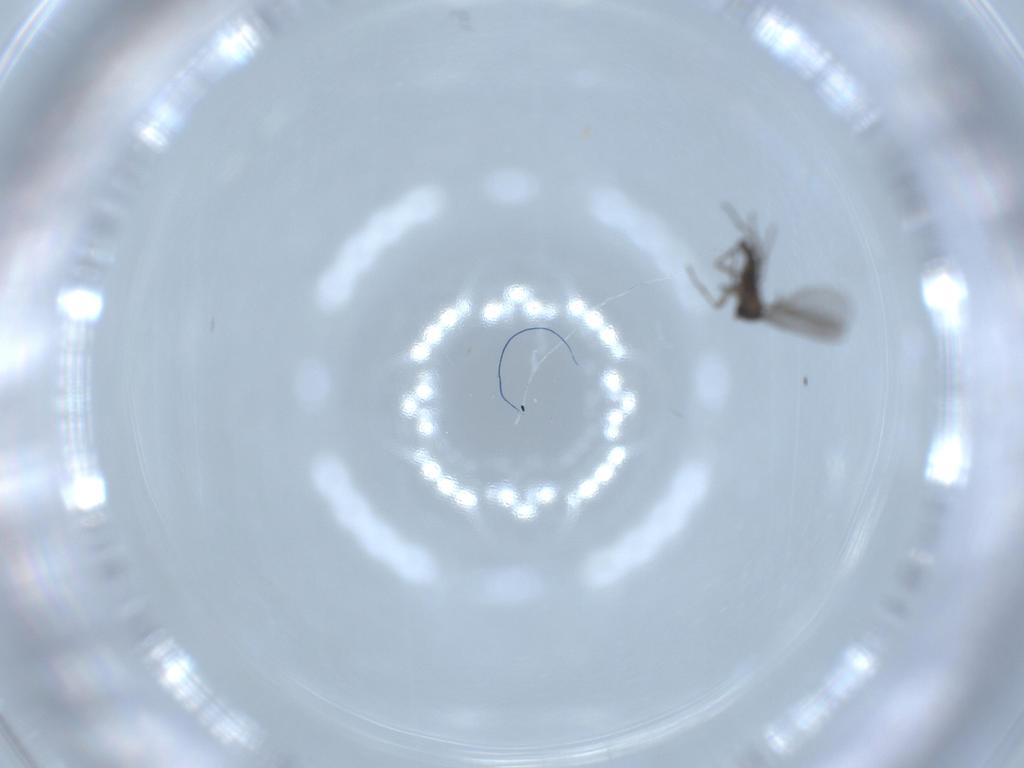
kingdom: Animalia
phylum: Arthropoda
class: Insecta
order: Diptera
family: Sciaridae
